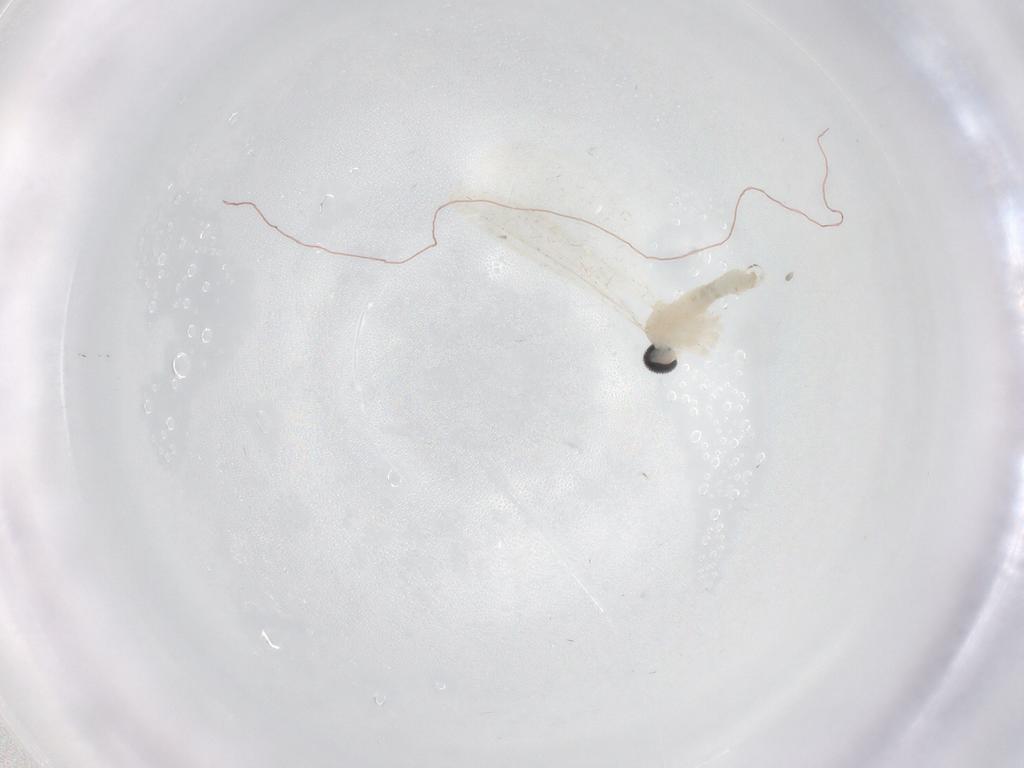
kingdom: Animalia
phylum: Arthropoda
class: Insecta
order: Diptera
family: Cecidomyiidae
